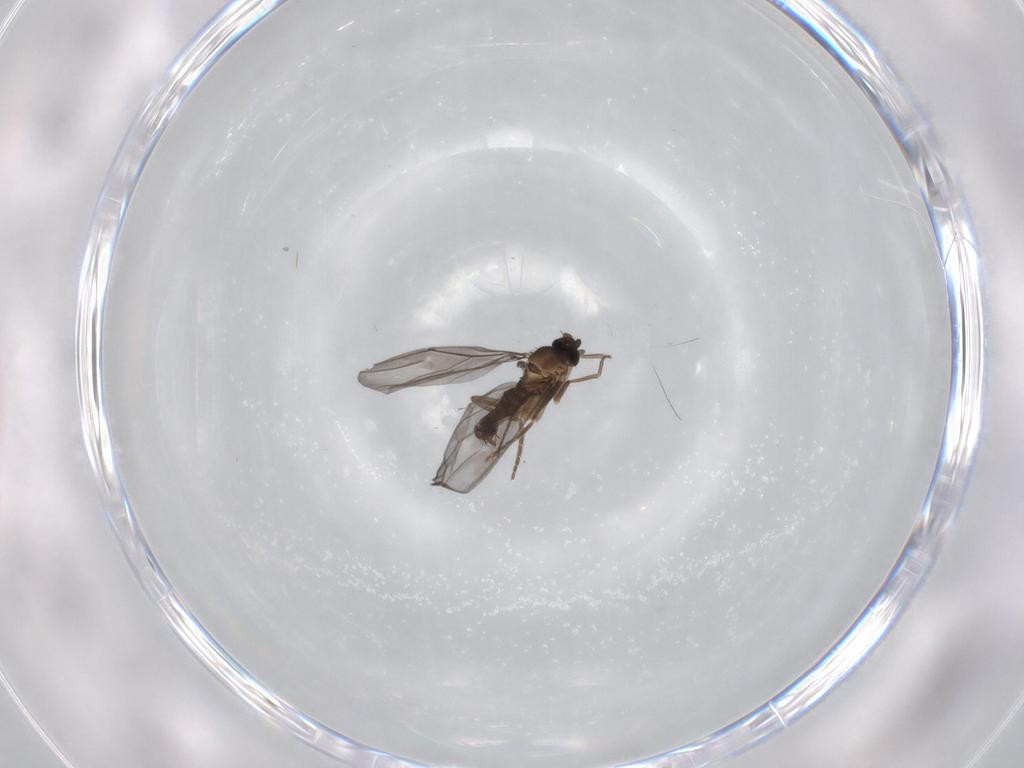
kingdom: Animalia
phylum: Arthropoda
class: Insecta
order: Diptera
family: Phoridae
